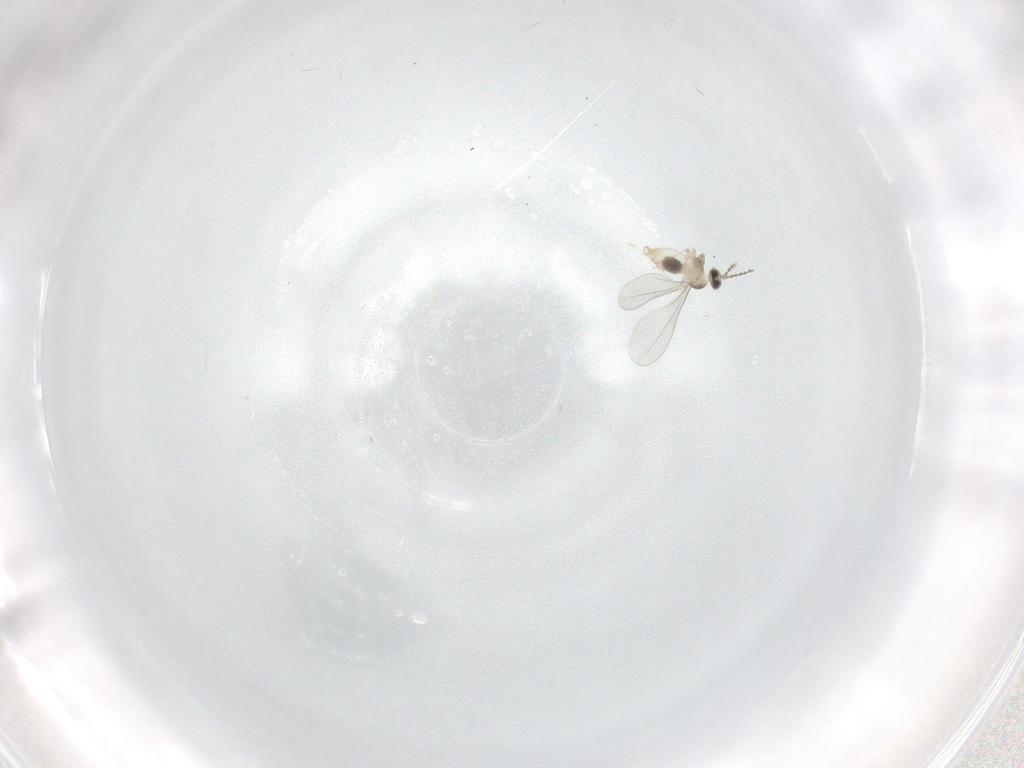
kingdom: Animalia
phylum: Arthropoda
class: Insecta
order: Diptera
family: Cecidomyiidae
